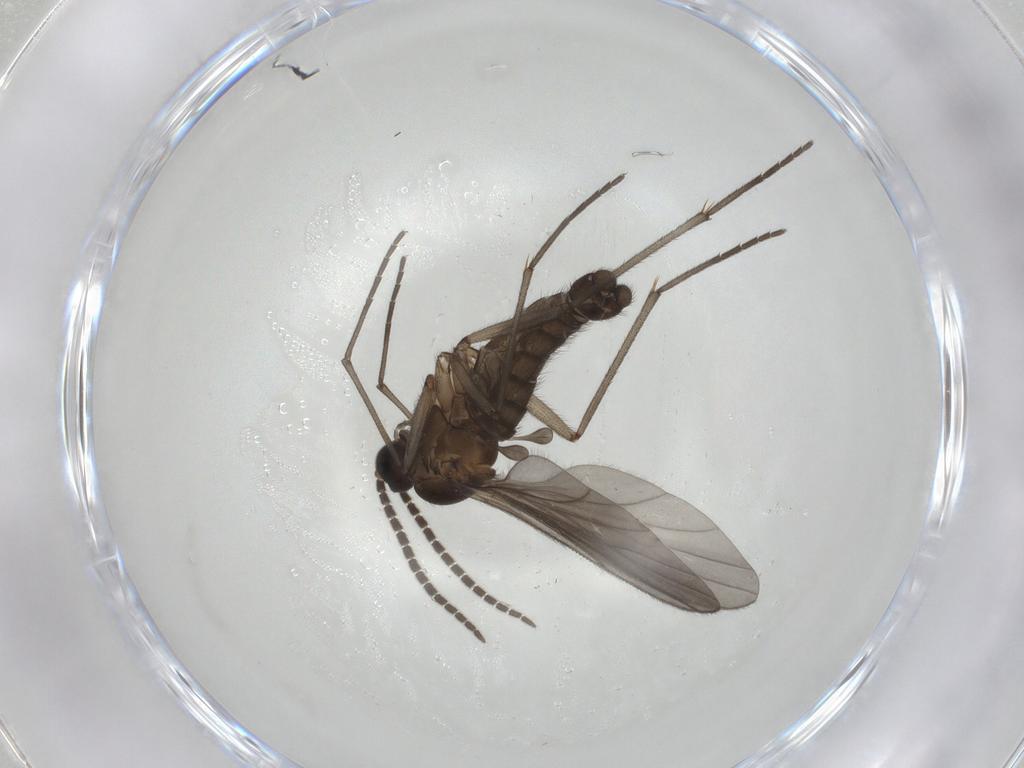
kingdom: Animalia
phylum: Arthropoda
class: Insecta
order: Diptera
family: Sciaridae
